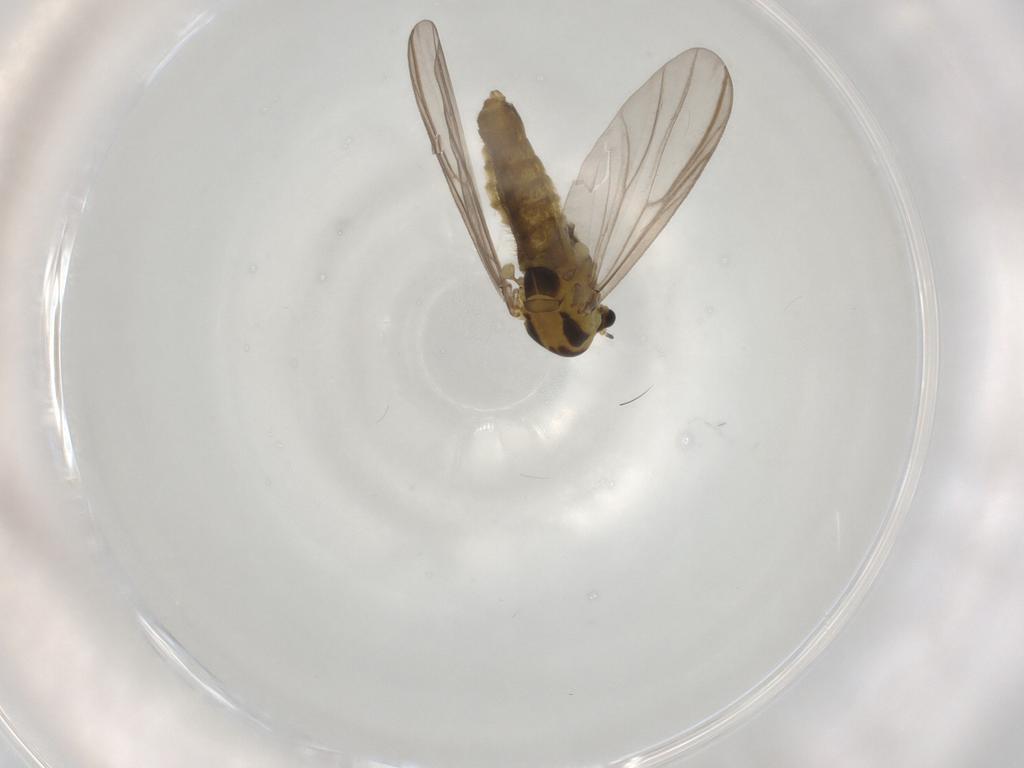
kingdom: Animalia
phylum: Arthropoda
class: Insecta
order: Diptera
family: Chironomidae
